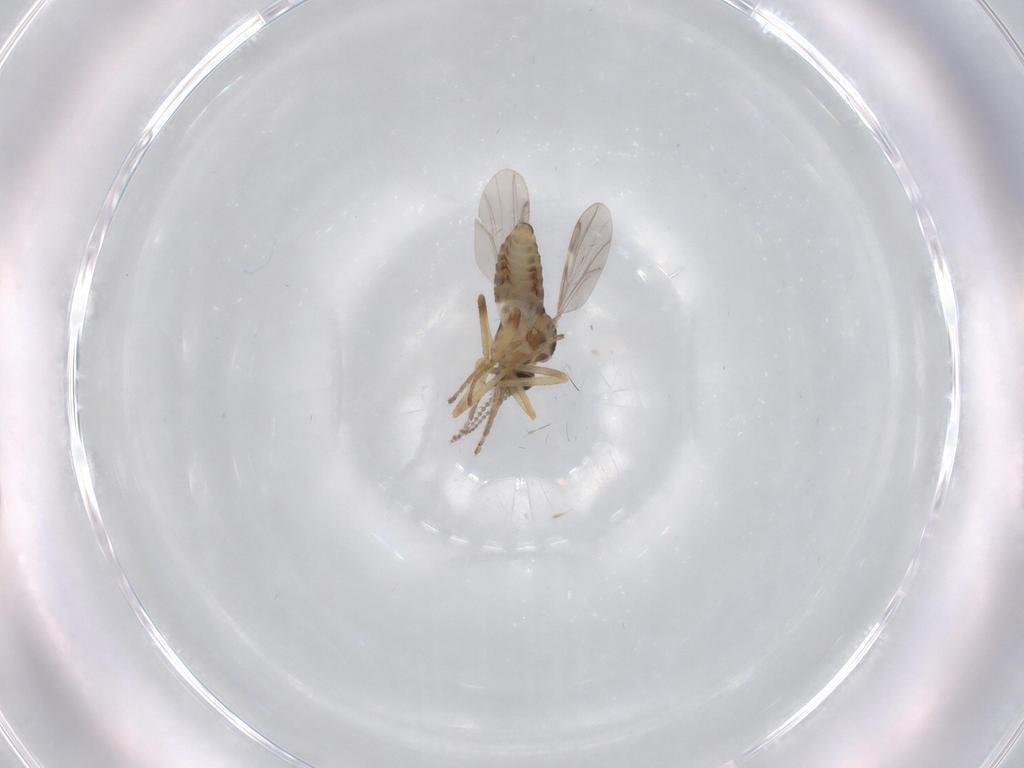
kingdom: Animalia
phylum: Arthropoda
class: Insecta
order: Diptera
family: Ceratopogonidae
